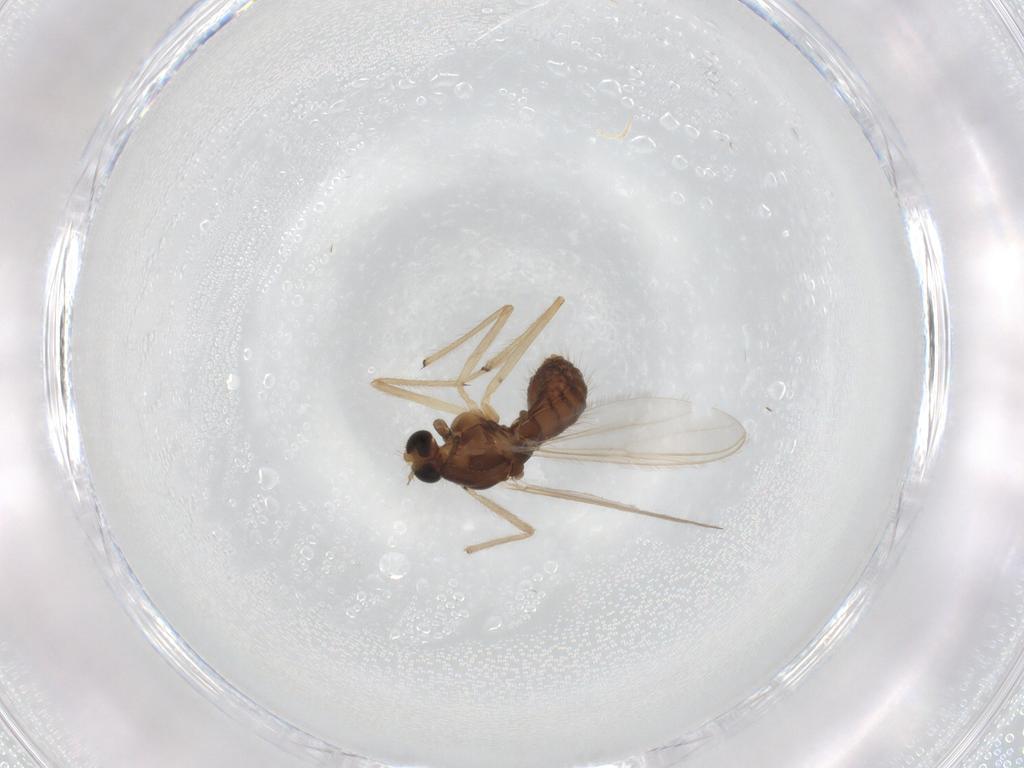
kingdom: Animalia
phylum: Arthropoda
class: Insecta
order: Diptera
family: Chironomidae
